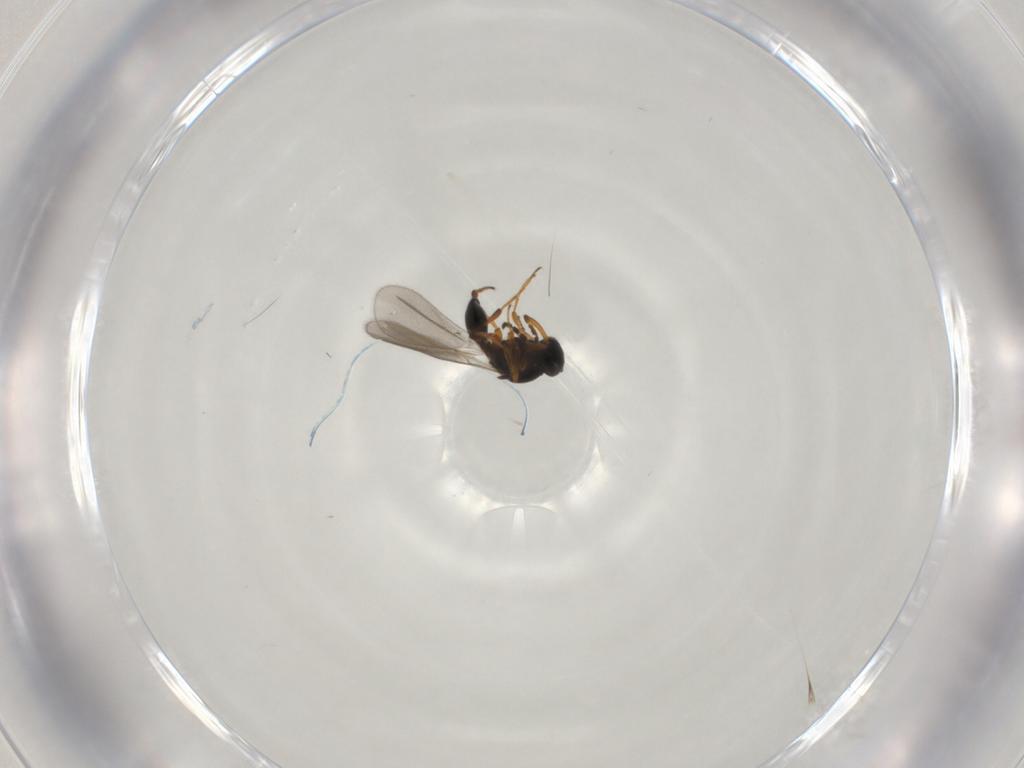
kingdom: Animalia
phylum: Arthropoda
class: Insecta
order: Hymenoptera
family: Platygastridae
